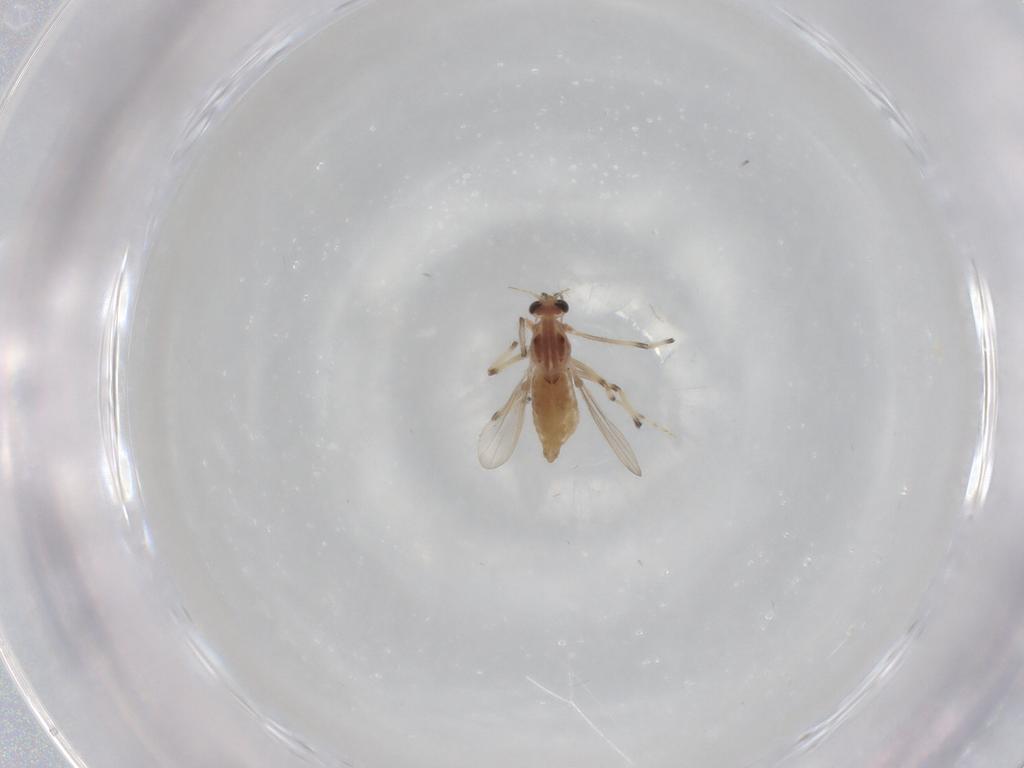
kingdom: Animalia
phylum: Arthropoda
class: Insecta
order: Diptera
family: Chironomidae
